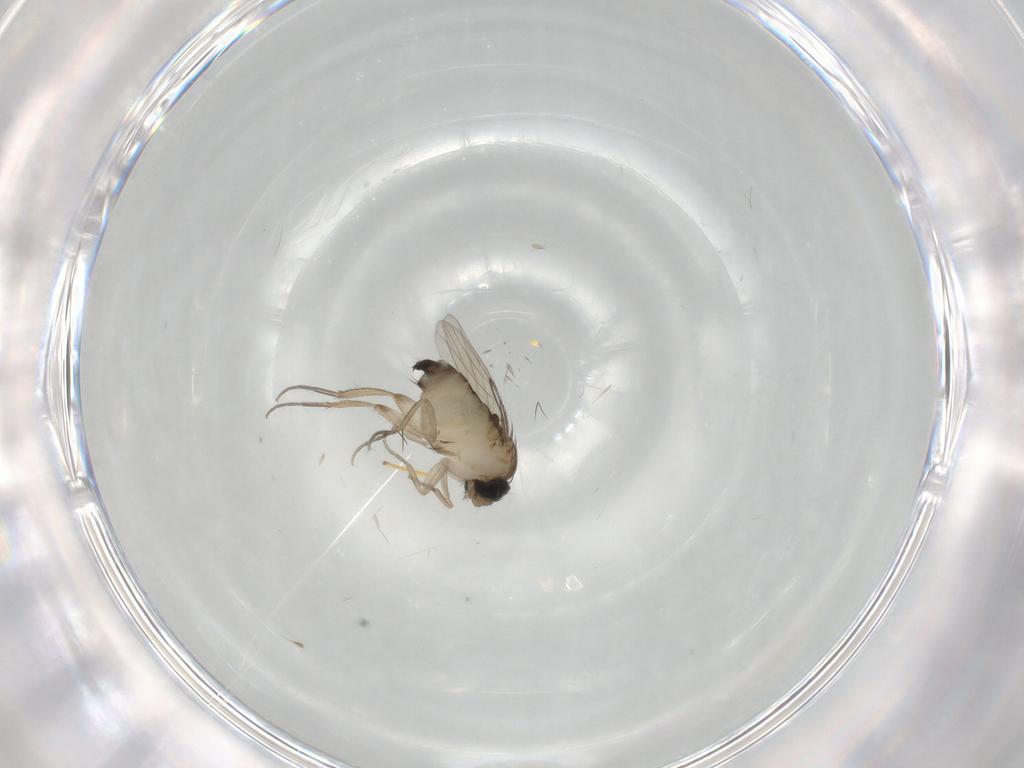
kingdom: Animalia
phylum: Arthropoda
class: Insecta
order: Diptera
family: Phoridae
